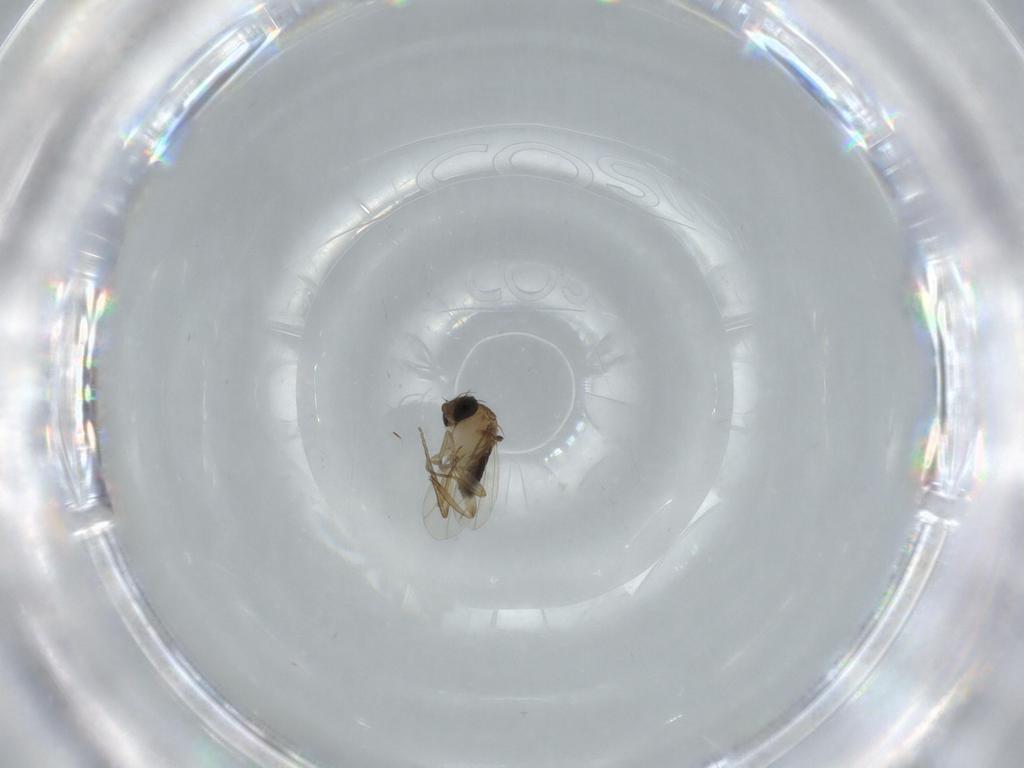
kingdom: Animalia
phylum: Arthropoda
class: Insecta
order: Diptera
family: Phoridae
